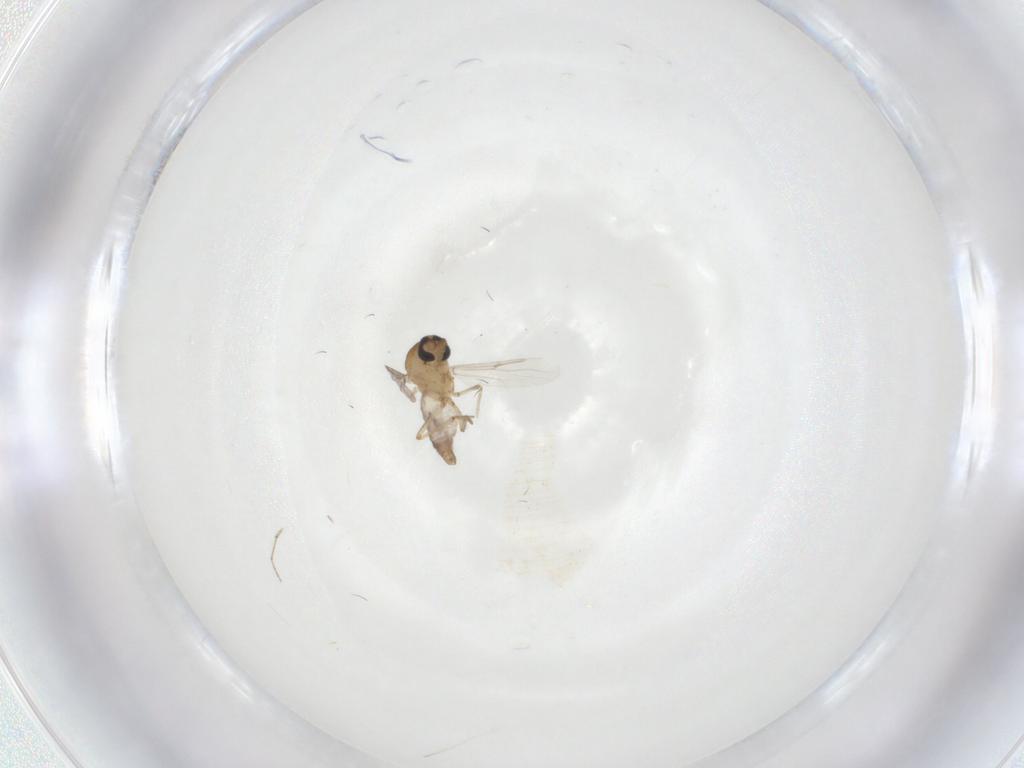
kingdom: Animalia
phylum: Arthropoda
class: Insecta
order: Diptera
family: Ceratopogonidae
